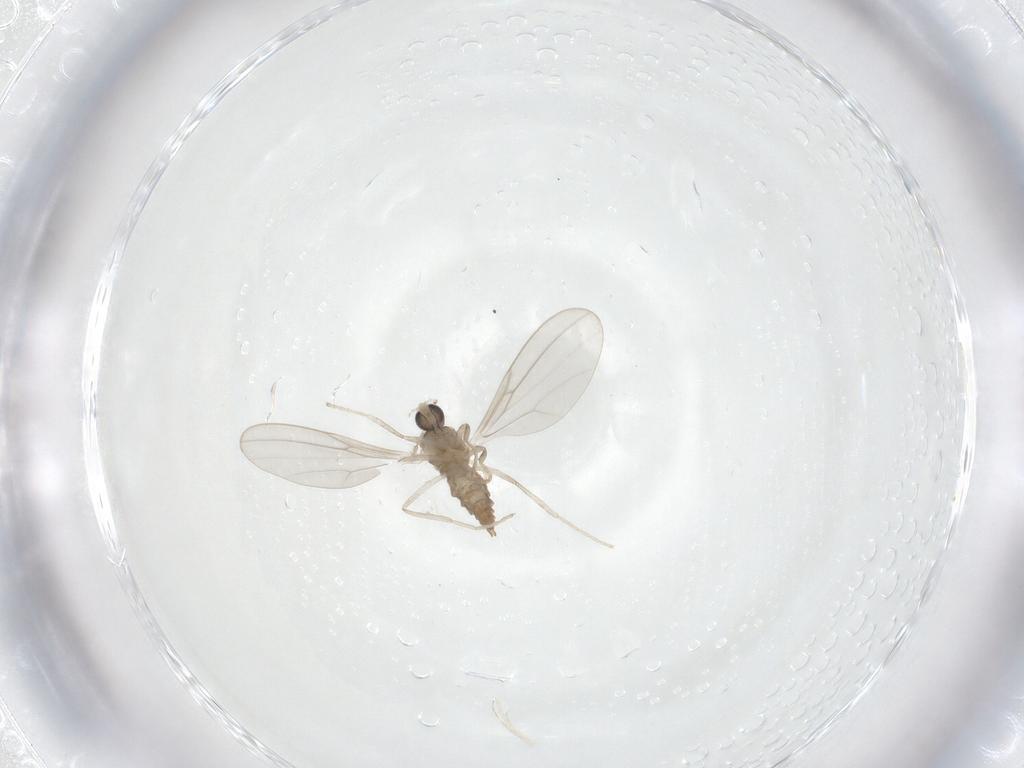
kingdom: Animalia
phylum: Arthropoda
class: Insecta
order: Diptera
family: Cecidomyiidae
